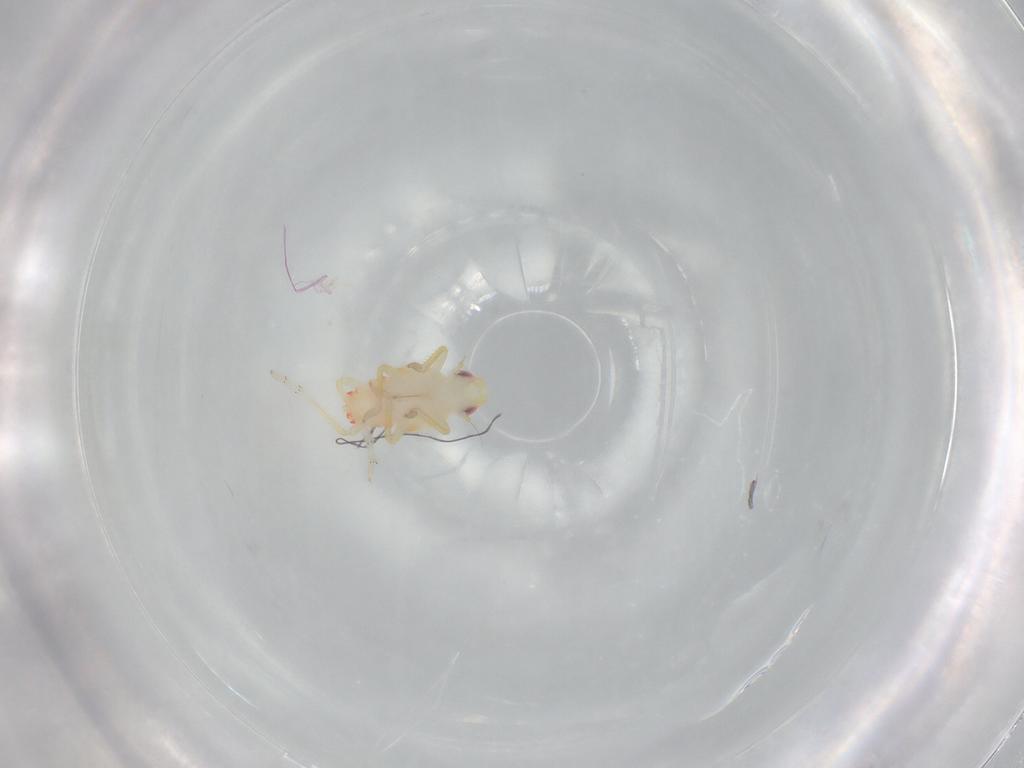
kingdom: Animalia
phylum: Arthropoda
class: Insecta
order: Hemiptera
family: Tropiduchidae
